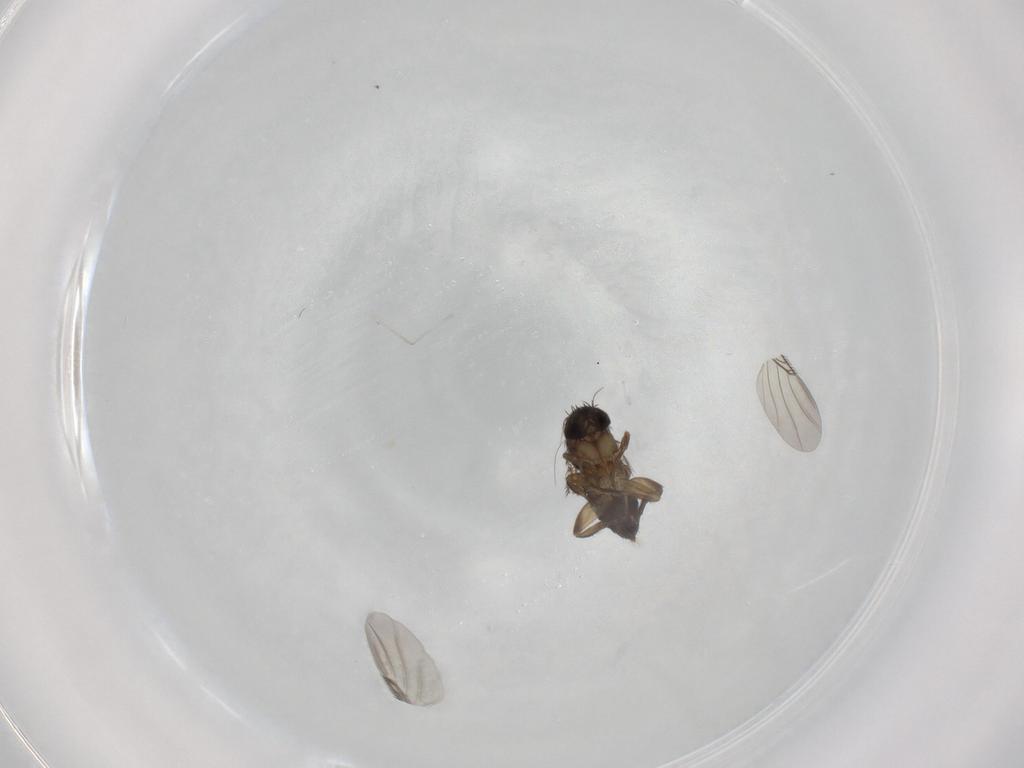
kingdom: Animalia
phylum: Arthropoda
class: Insecta
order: Diptera
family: Phoridae
